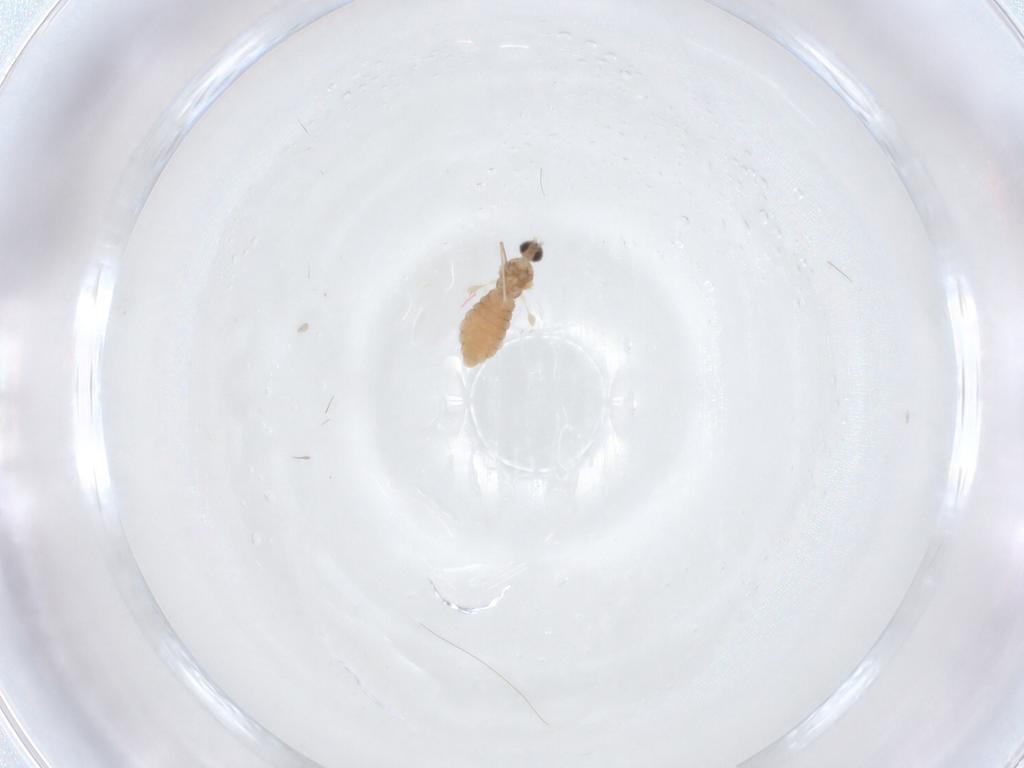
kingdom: Animalia
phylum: Arthropoda
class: Insecta
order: Diptera
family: Cecidomyiidae
